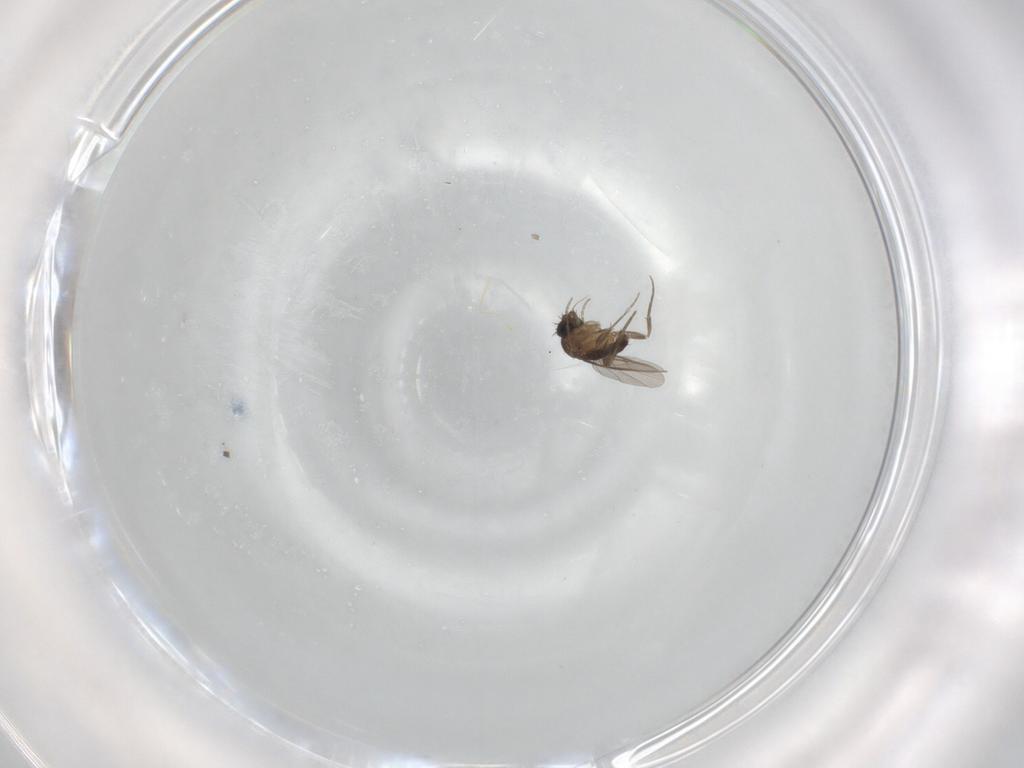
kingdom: Animalia
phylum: Arthropoda
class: Insecta
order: Diptera
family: Phoridae
